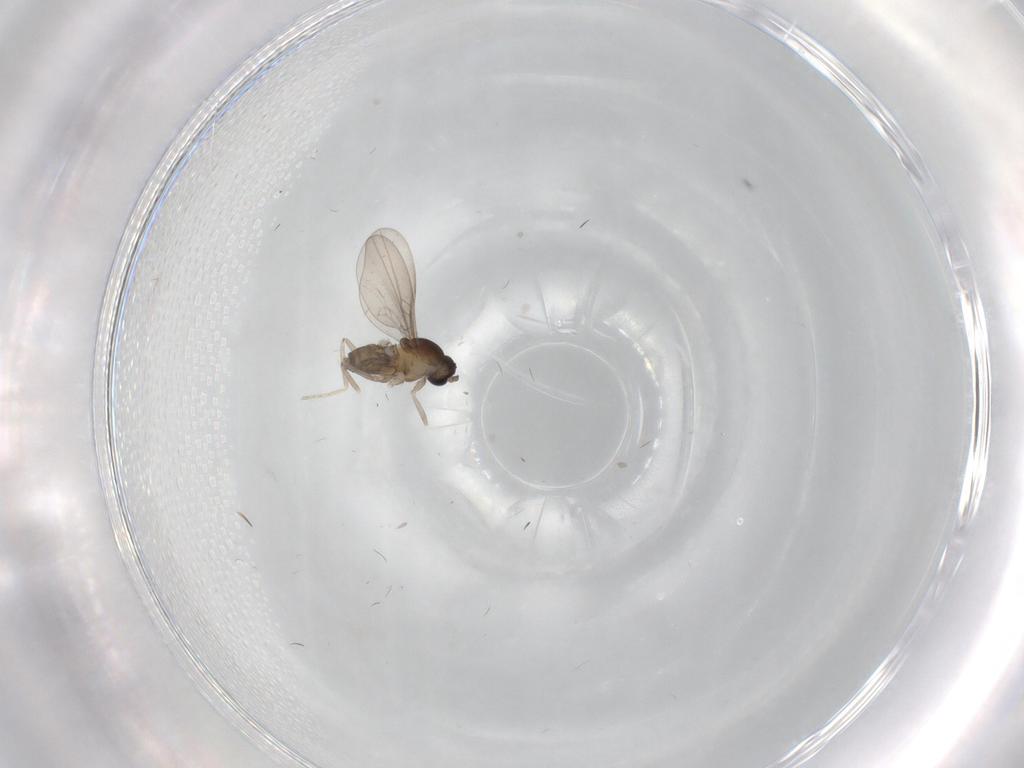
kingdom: Animalia
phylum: Arthropoda
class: Insecta
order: Diptera
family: Cecidomyiidae
